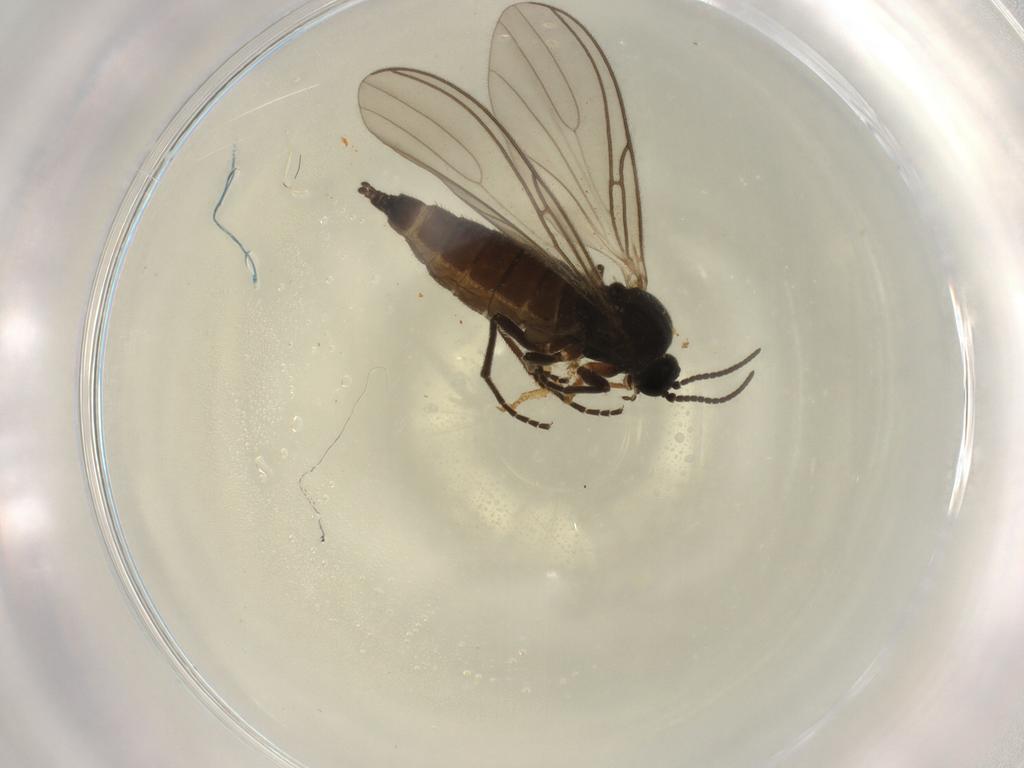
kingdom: Animalia
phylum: Arthropoda
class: Insecta
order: Diptera
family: Sciaridae
